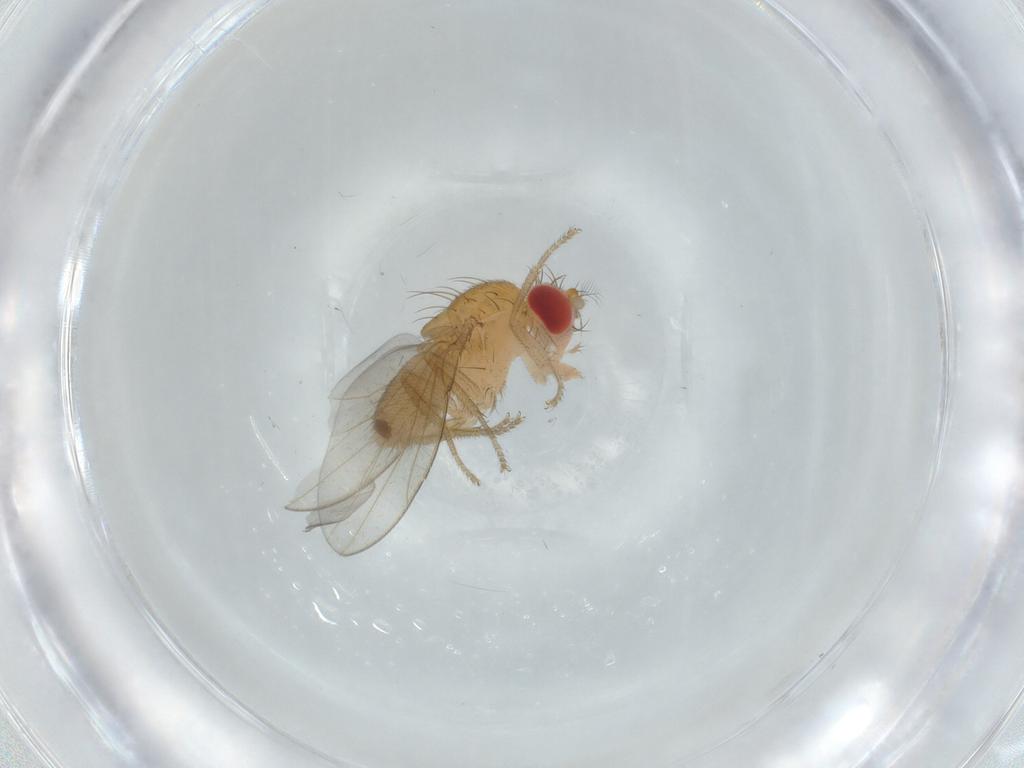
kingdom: Animalia
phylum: Arthropoda
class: Insecta
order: Diptera
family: Drosophilidae
